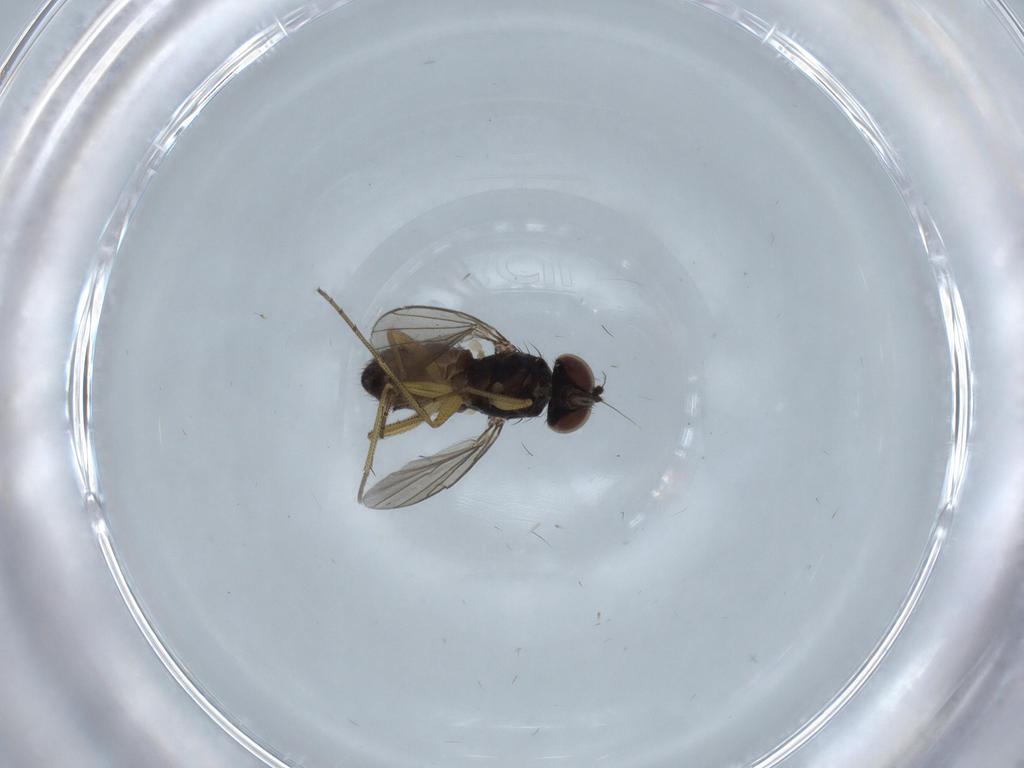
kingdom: Animalia
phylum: Arthropoda
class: Insecta
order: Diptera
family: Dolichopodidae
